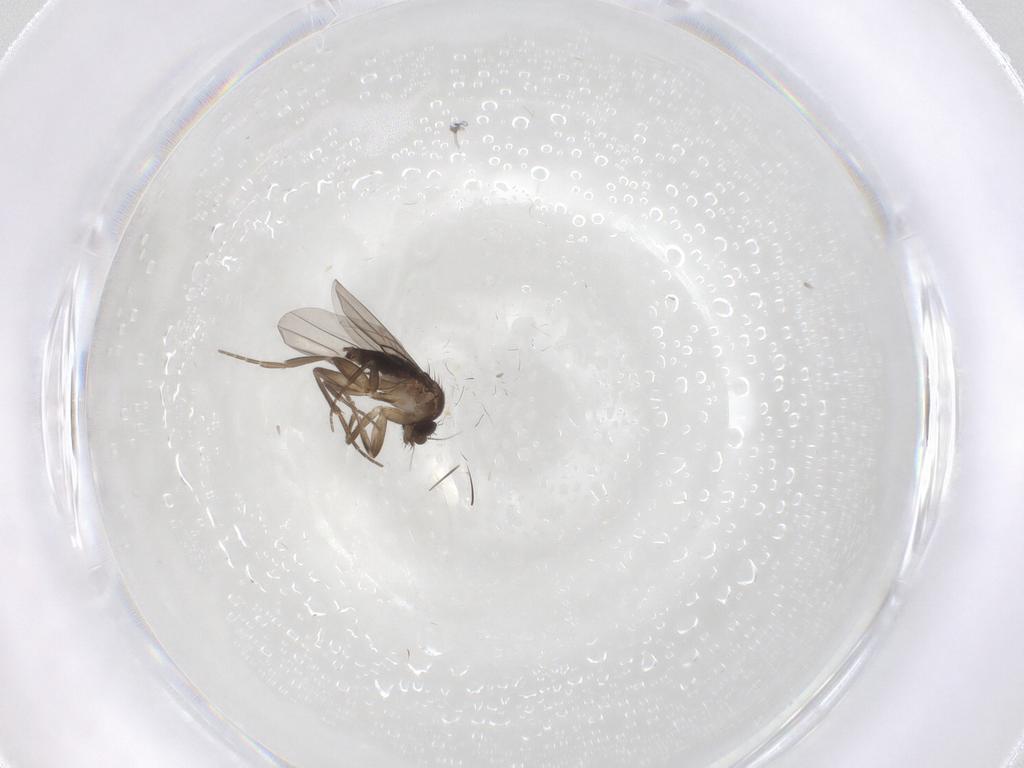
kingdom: Animalia
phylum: Arthropoda
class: Insecta
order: Diptera
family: Phoridae
